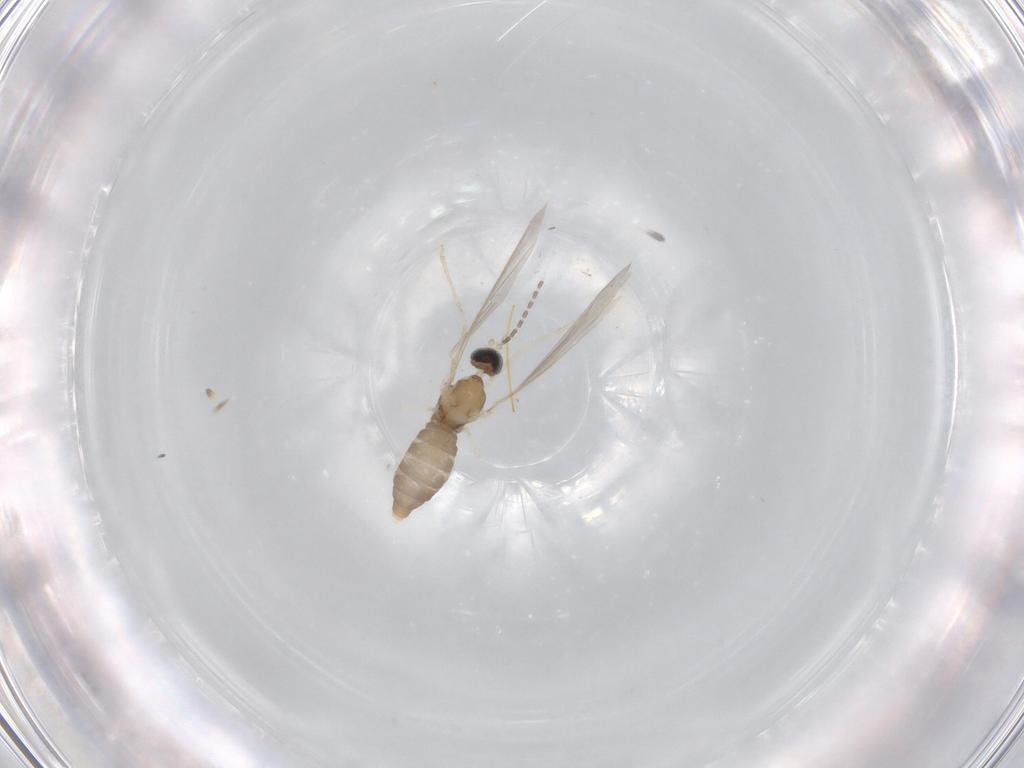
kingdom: Animalia
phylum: Arthropoda
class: Insecta
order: Diptera
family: Cecidomyiidae
